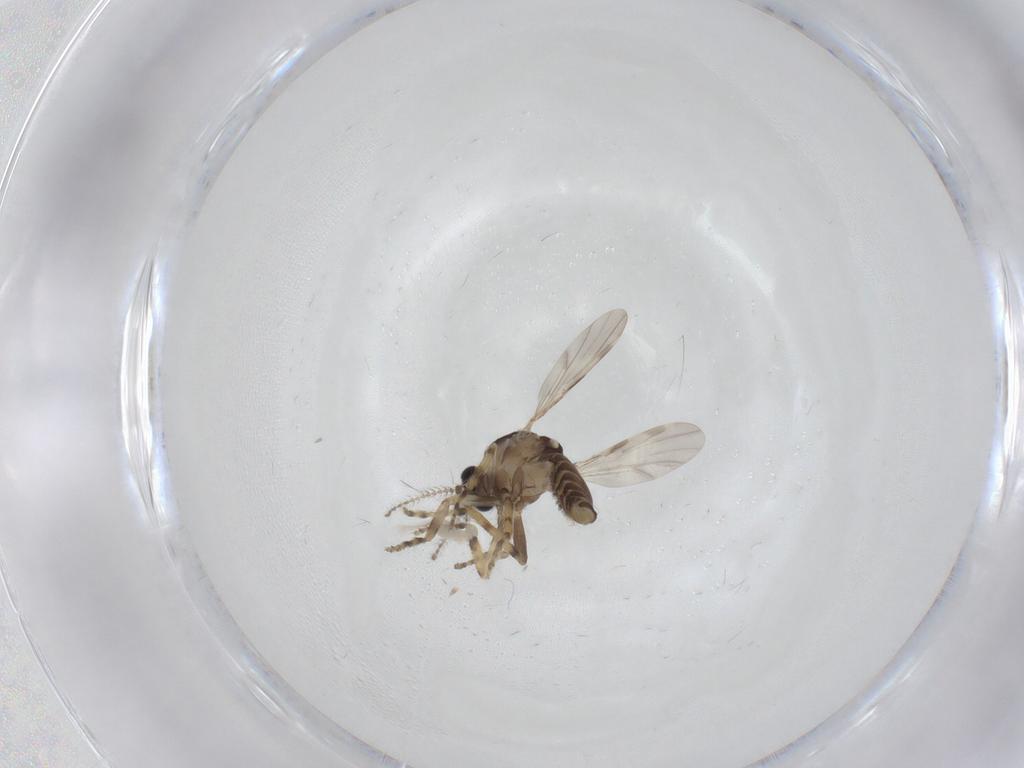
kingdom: Animalia
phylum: Arthropoda
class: Insecta
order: Diptera
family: Ceratopogonidae
